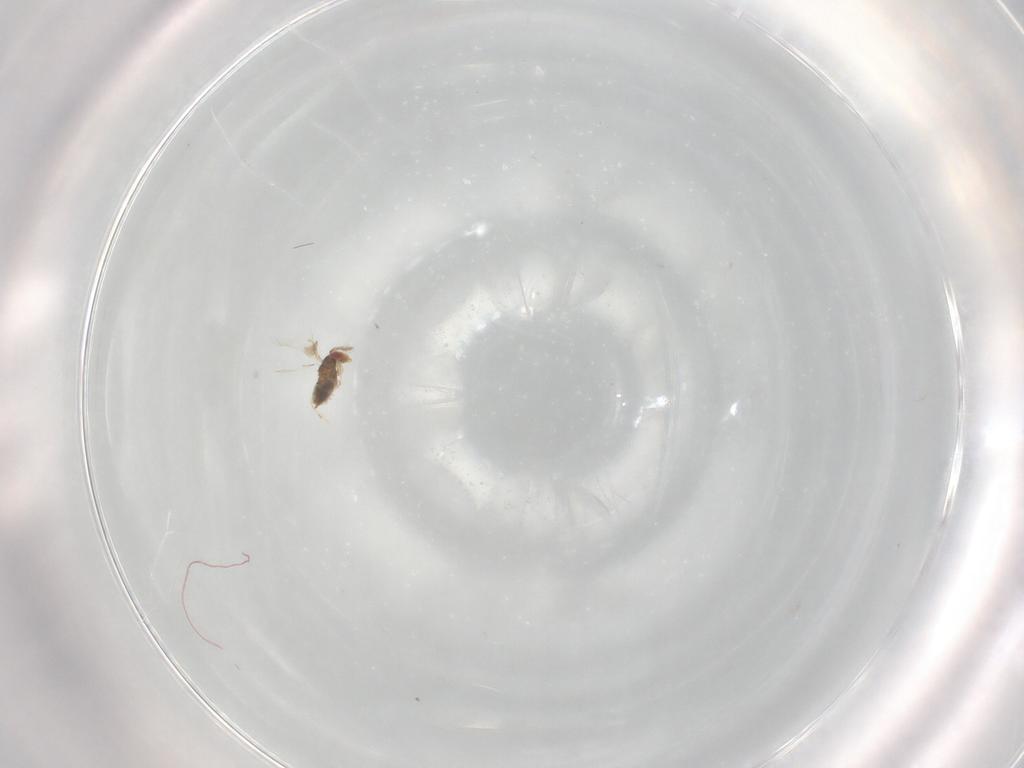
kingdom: Animalia
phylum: Arthropoda
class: Insecta
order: Hymenoptera
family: Trichogrammatidae
